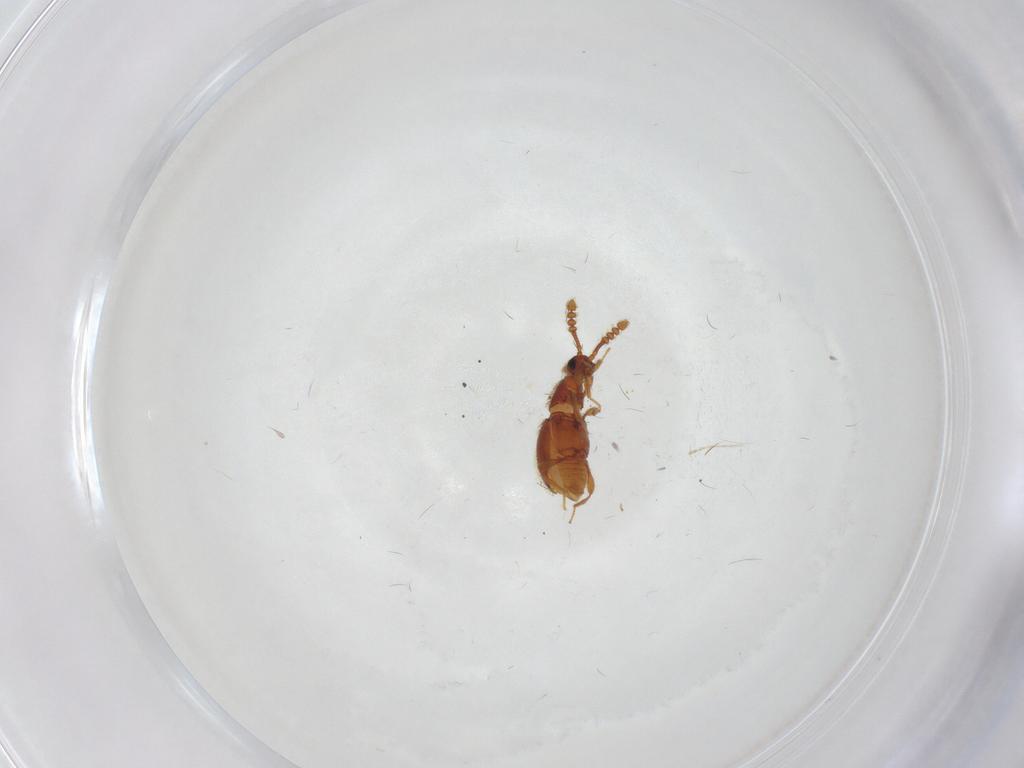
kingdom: Animalia
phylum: Arthropoda
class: Insecta
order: Coleoptera
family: Staphylinidae
